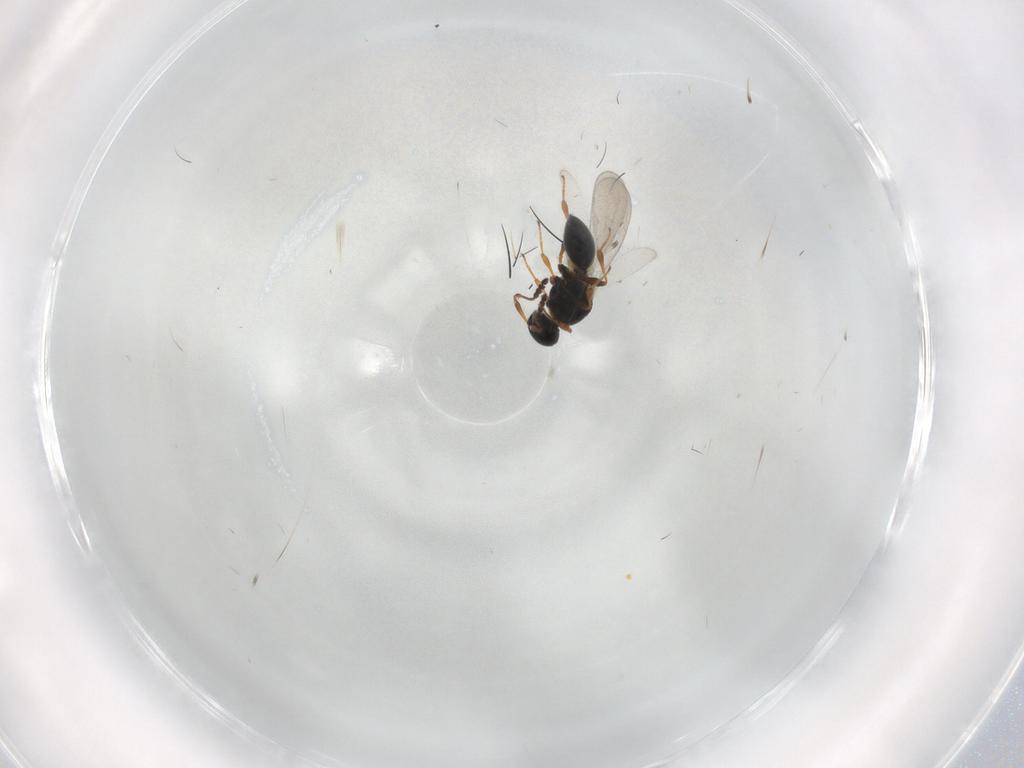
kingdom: Animalia
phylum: Arthropoda
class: Insecta
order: Hymenoptera
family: Platygastridae
